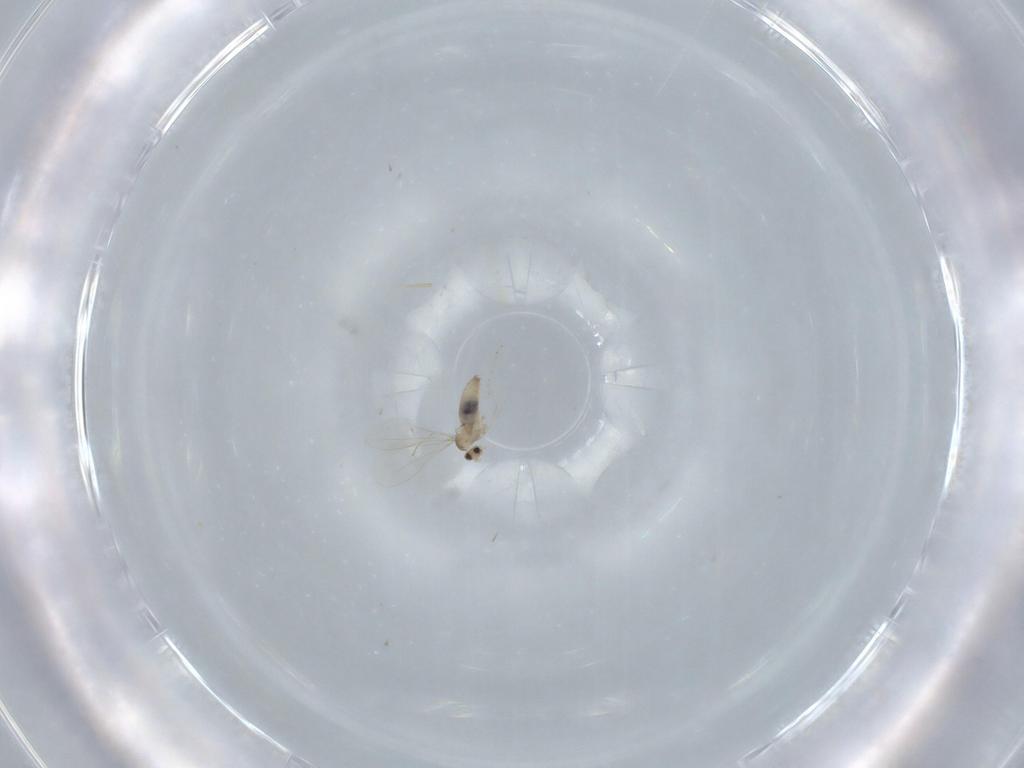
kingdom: Animalia
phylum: Arthropoda
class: Insecta
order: Diptera
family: Cecidomyiidae
